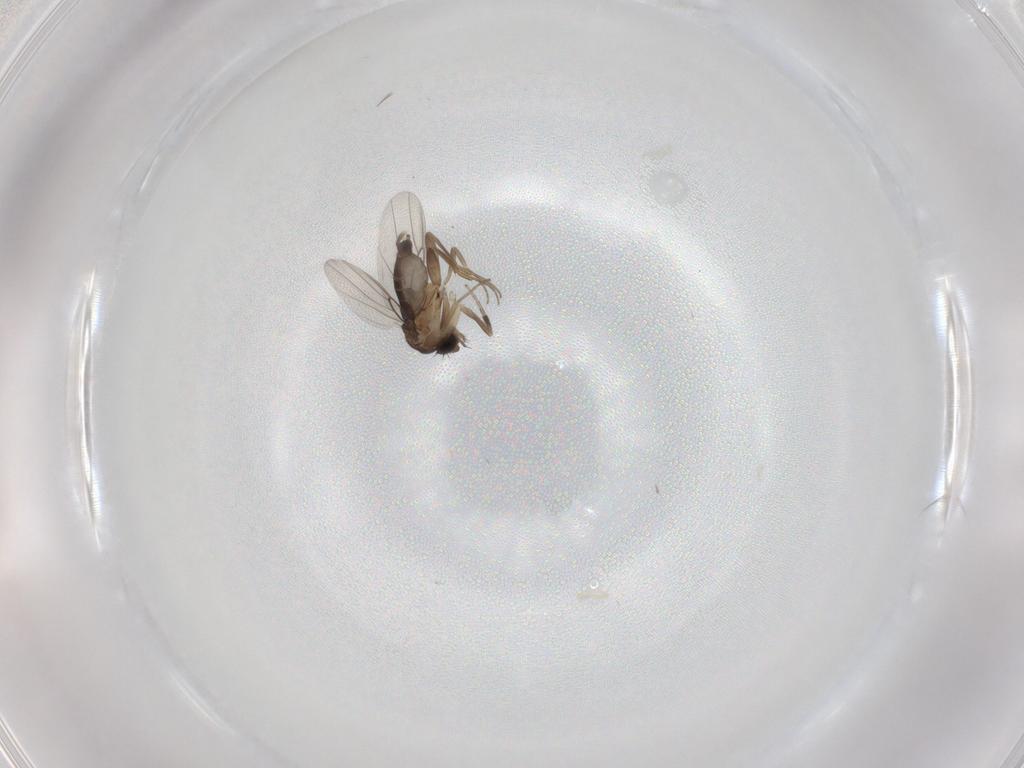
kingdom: Animalia
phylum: Arthropoda
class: Insecta
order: Diptera
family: Phoridae
